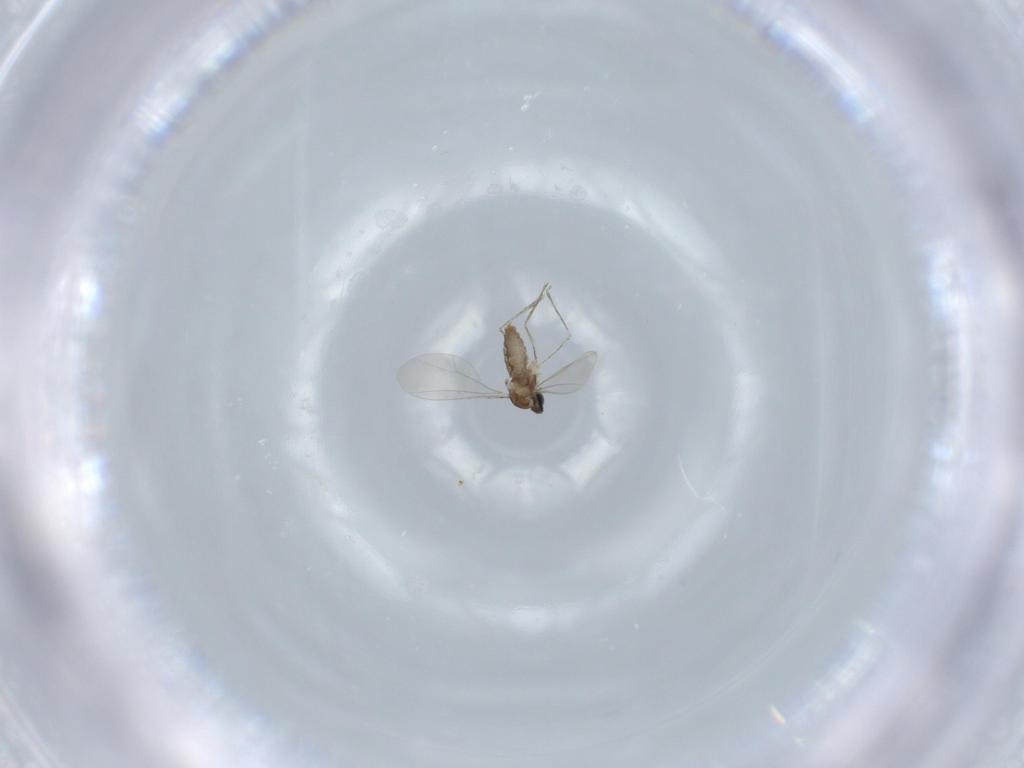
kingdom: Animalia
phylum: Arthropoda
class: Insecta
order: Diptera
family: Cecidomyiidae
